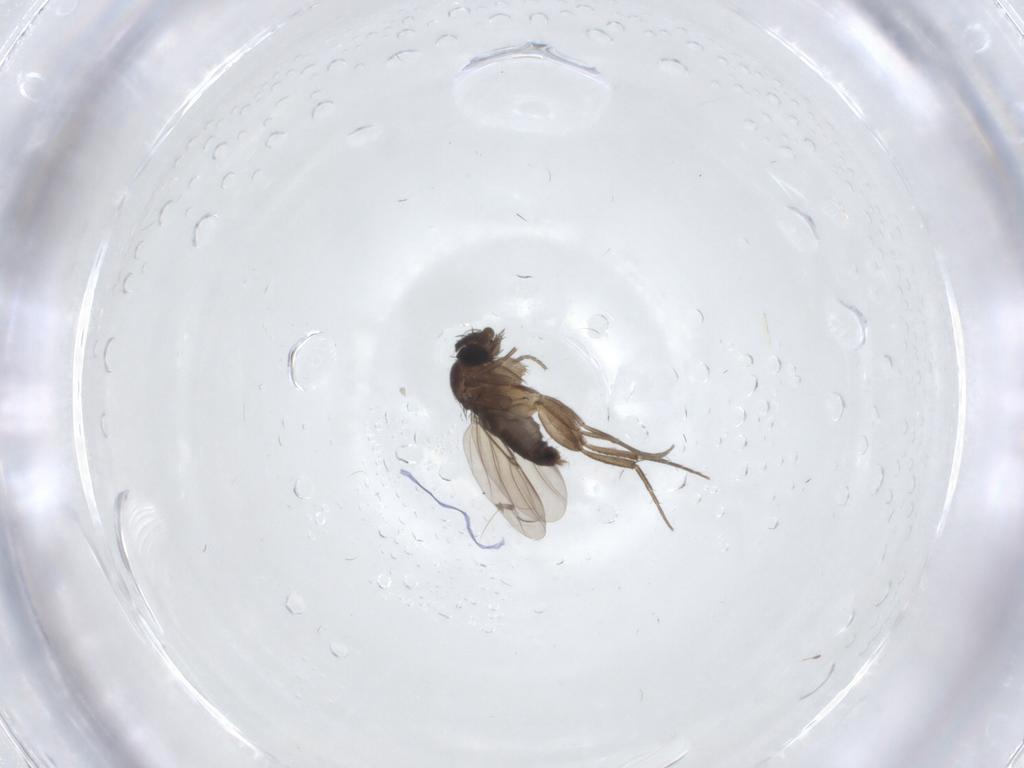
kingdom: Animalia
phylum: Arthropoda
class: Insecta
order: Diptera
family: Phoridae
